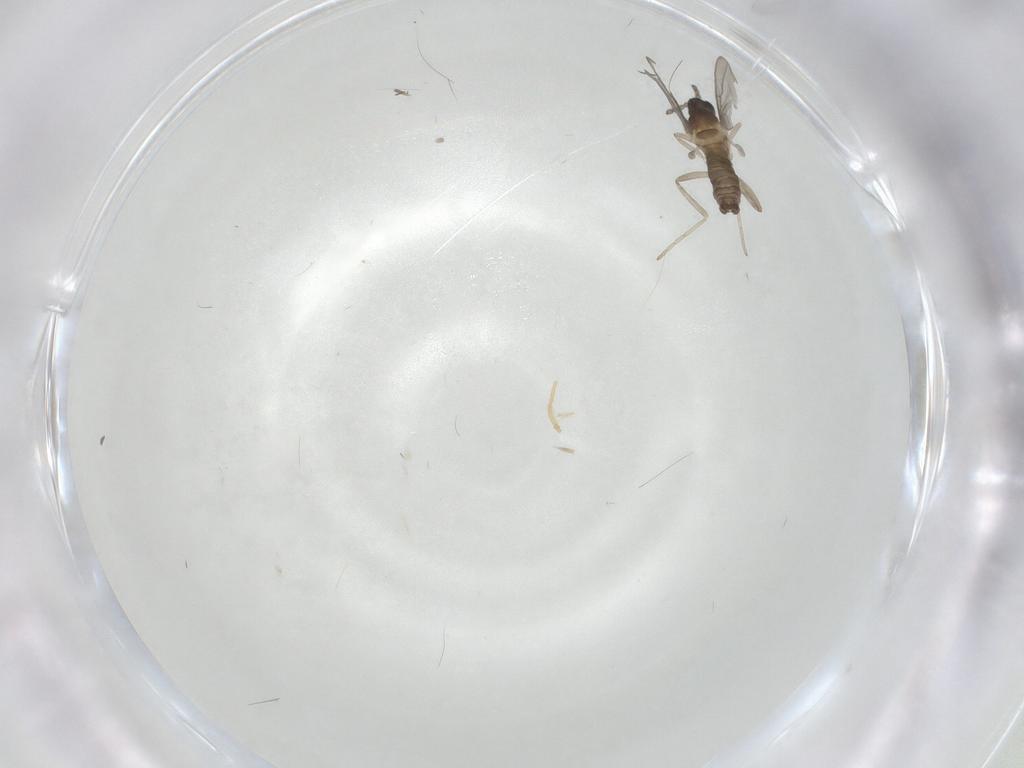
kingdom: Animalia
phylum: Arthropoda
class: Insecta
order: Diptera
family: Cecidomyiidae
